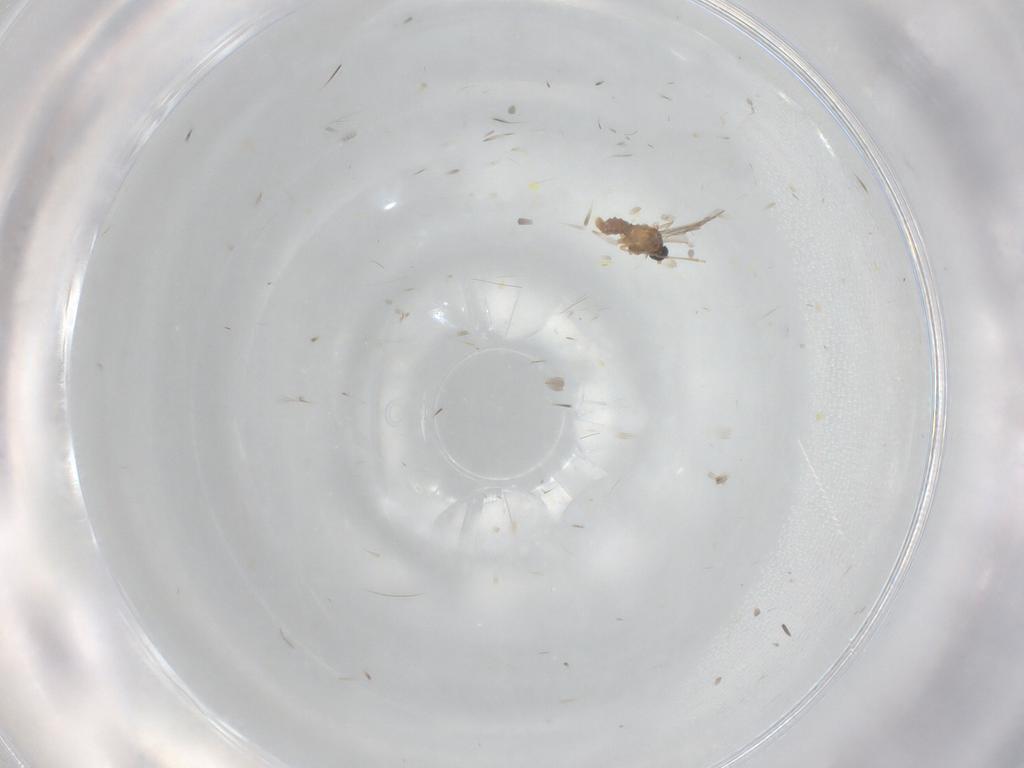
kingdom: Animalia
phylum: Arthropoda
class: Insecta
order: Diptera
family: Ceratopogonidae
